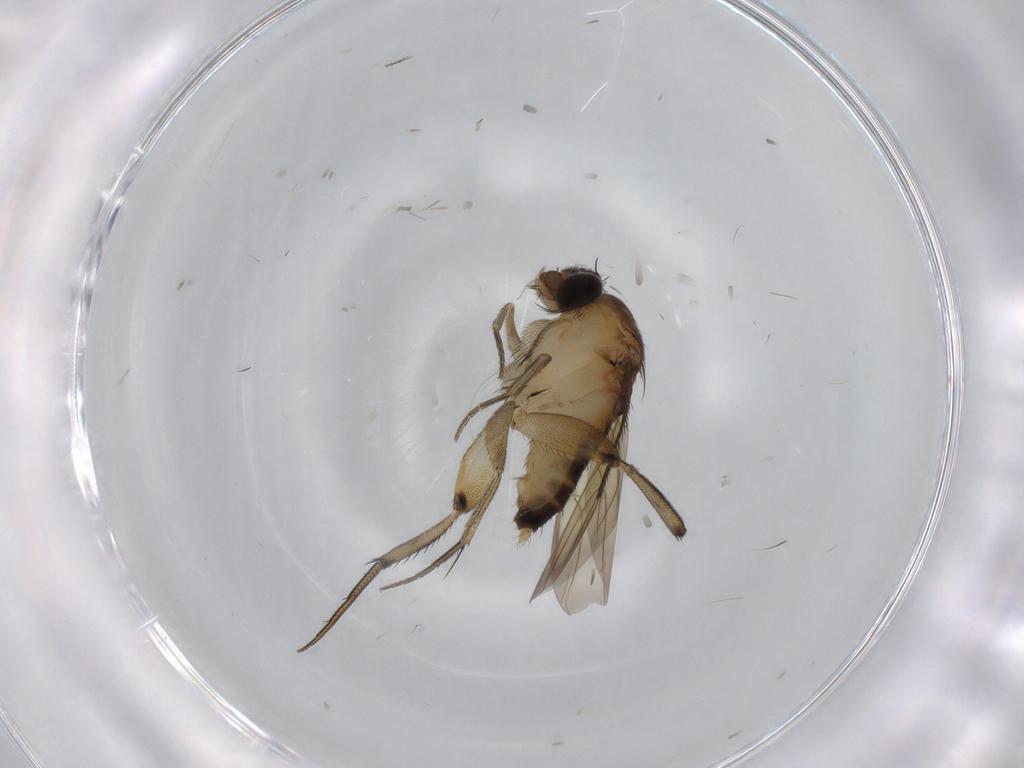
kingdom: Animalia
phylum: Arthropoda
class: Insecta
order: Diptera
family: Phoridae
